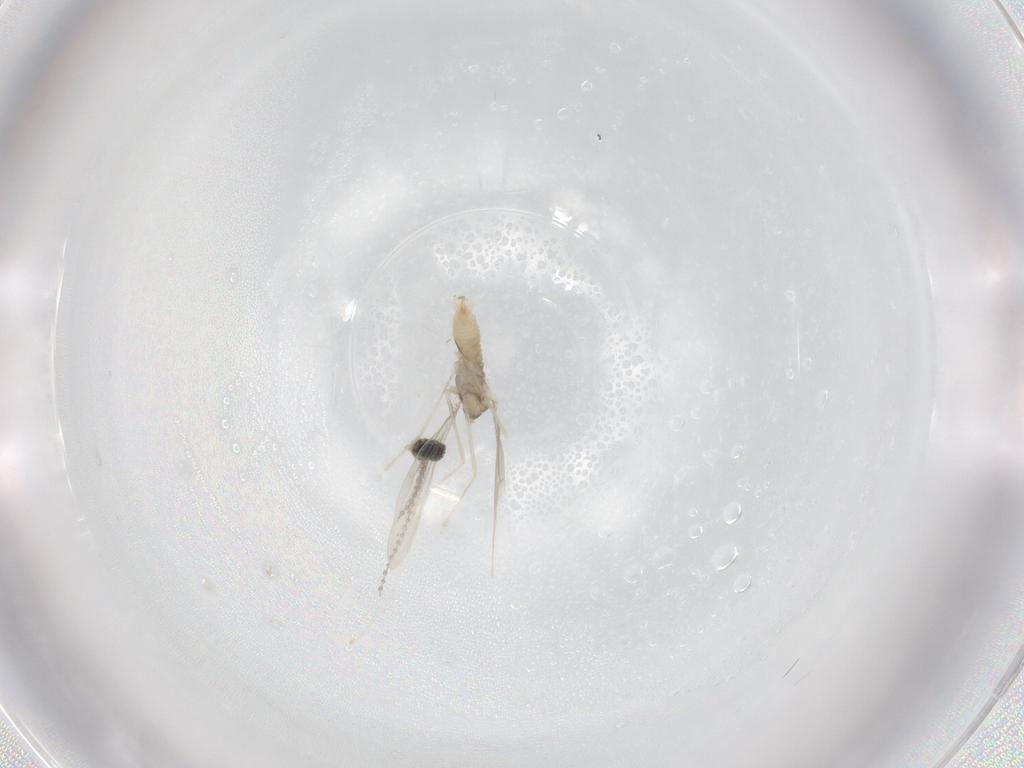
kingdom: Animalia
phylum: Arthropoda
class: Insecta
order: Diptera
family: Cecidomyiidae
